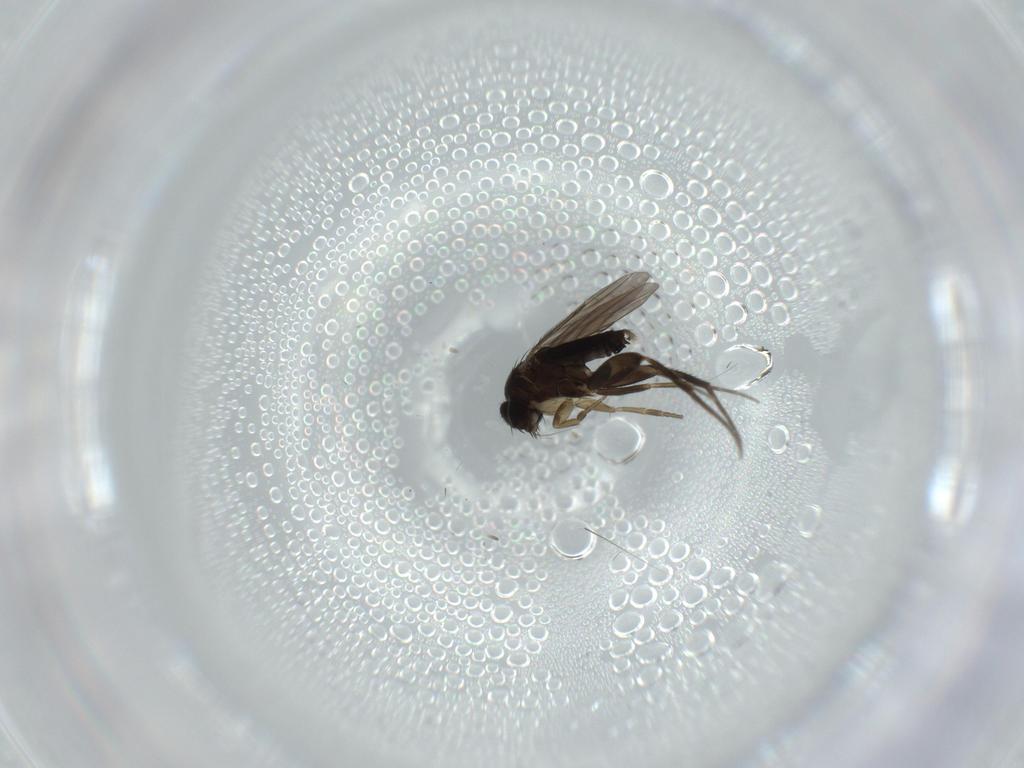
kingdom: Animalia
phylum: Arthropoda
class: Insecta
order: Diptera
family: Phoridae
